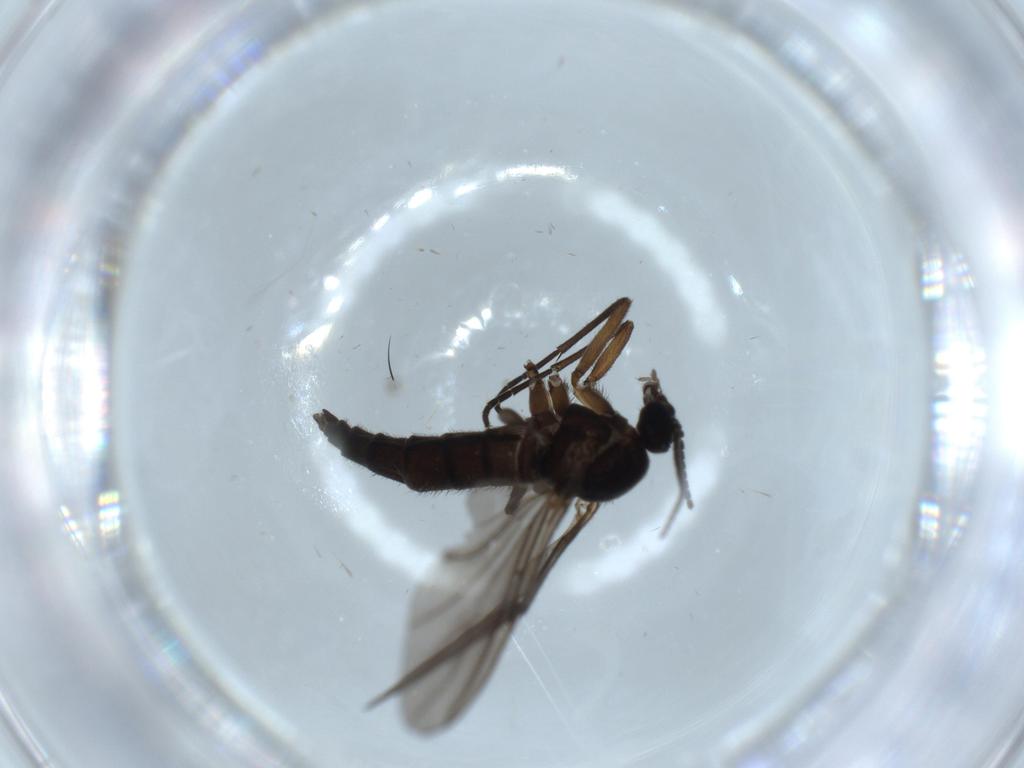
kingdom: Animalia
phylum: Arthropoda
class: Insecta
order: Diptera
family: Sciaridae
